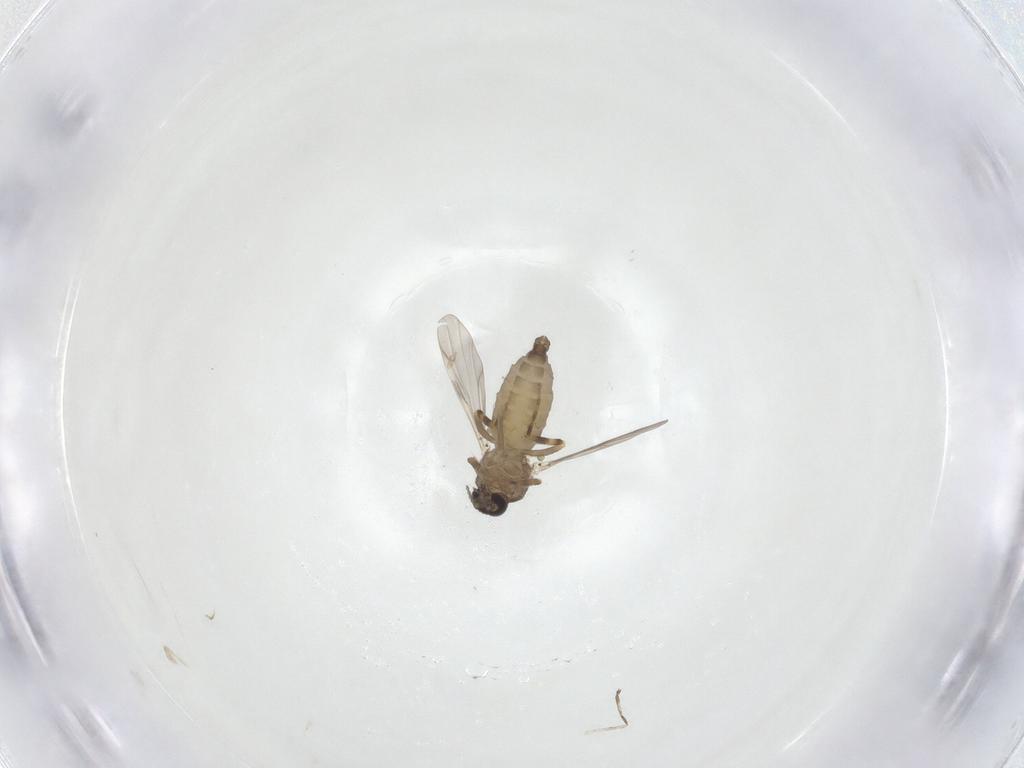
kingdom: Animalia
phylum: Arthropoda
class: Insecta
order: Diptera
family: Ceratopogonidae
